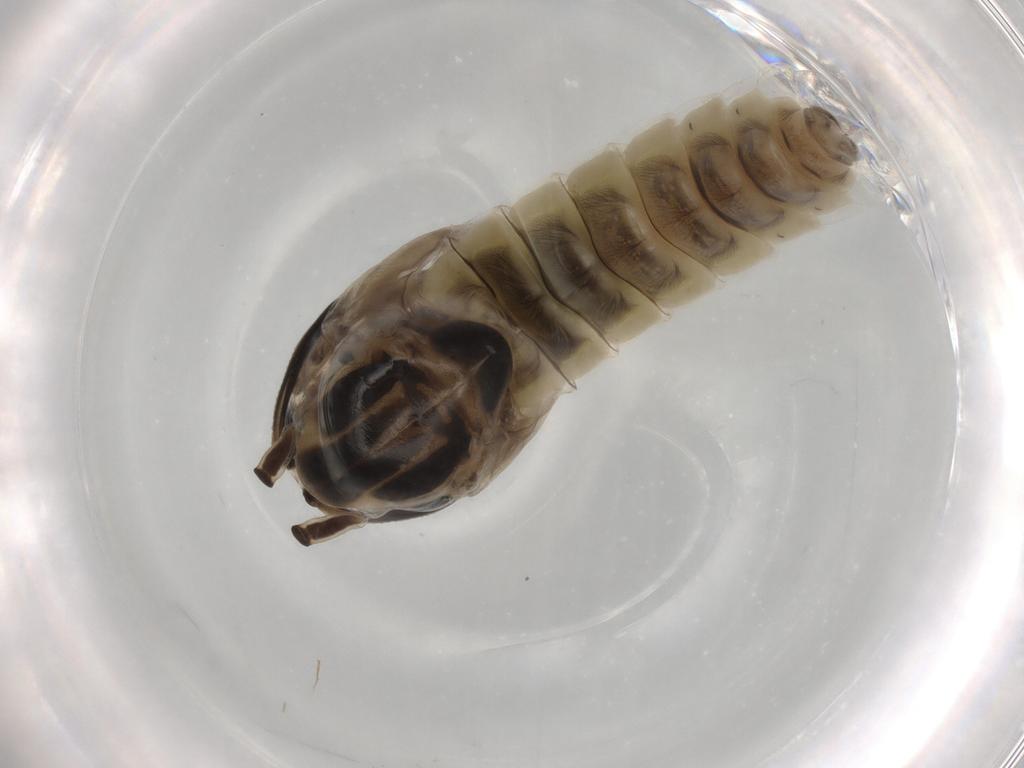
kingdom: Animalia
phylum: Arthropoda
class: Insecta
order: Diptera
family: Chironomidae
